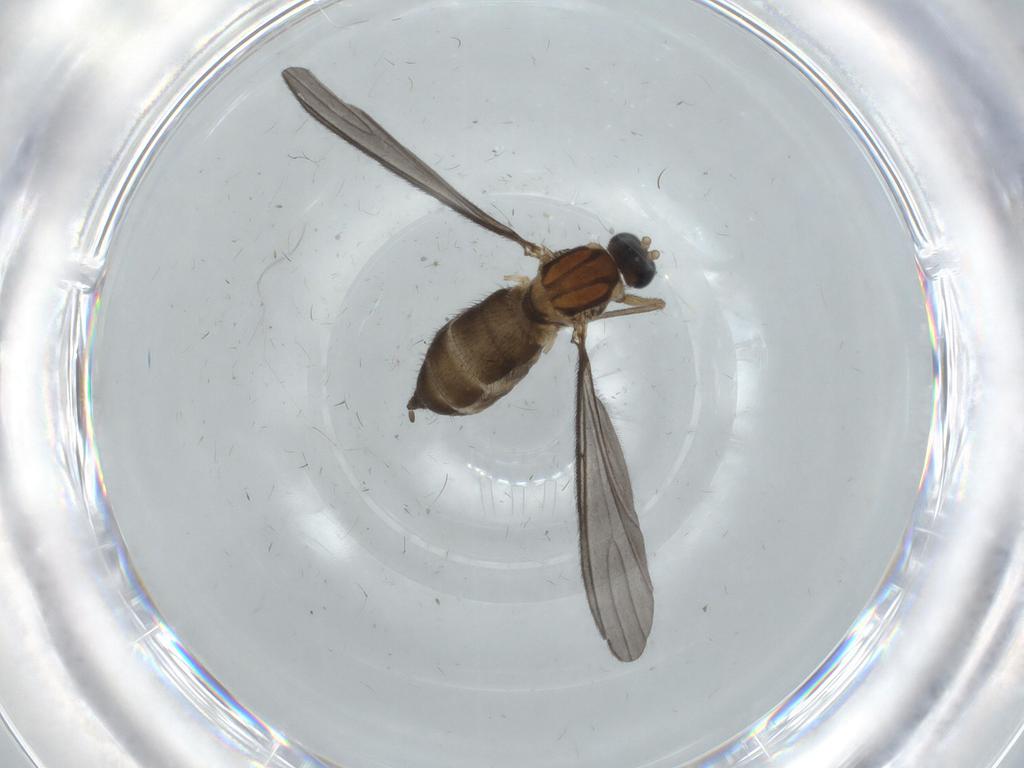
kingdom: Animalia
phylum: Arthropoda
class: Insecta
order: Diptera
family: Sciaridae
